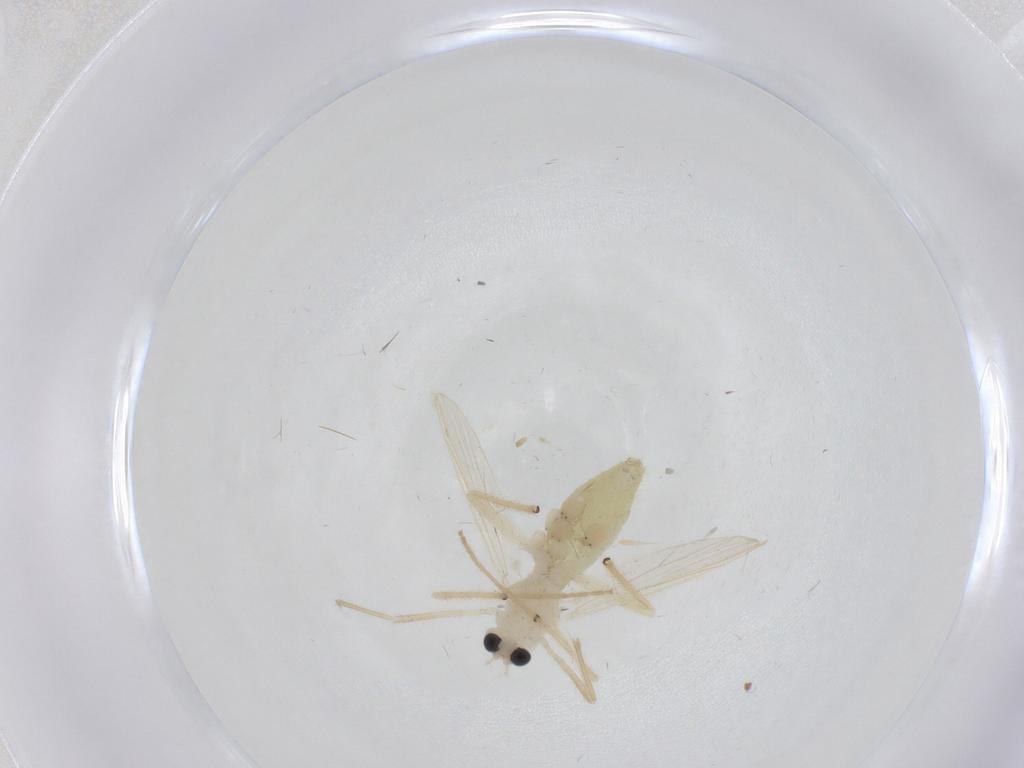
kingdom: Animalia
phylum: Arthropoda
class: Insecta
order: Diptera
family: Chironomidae
